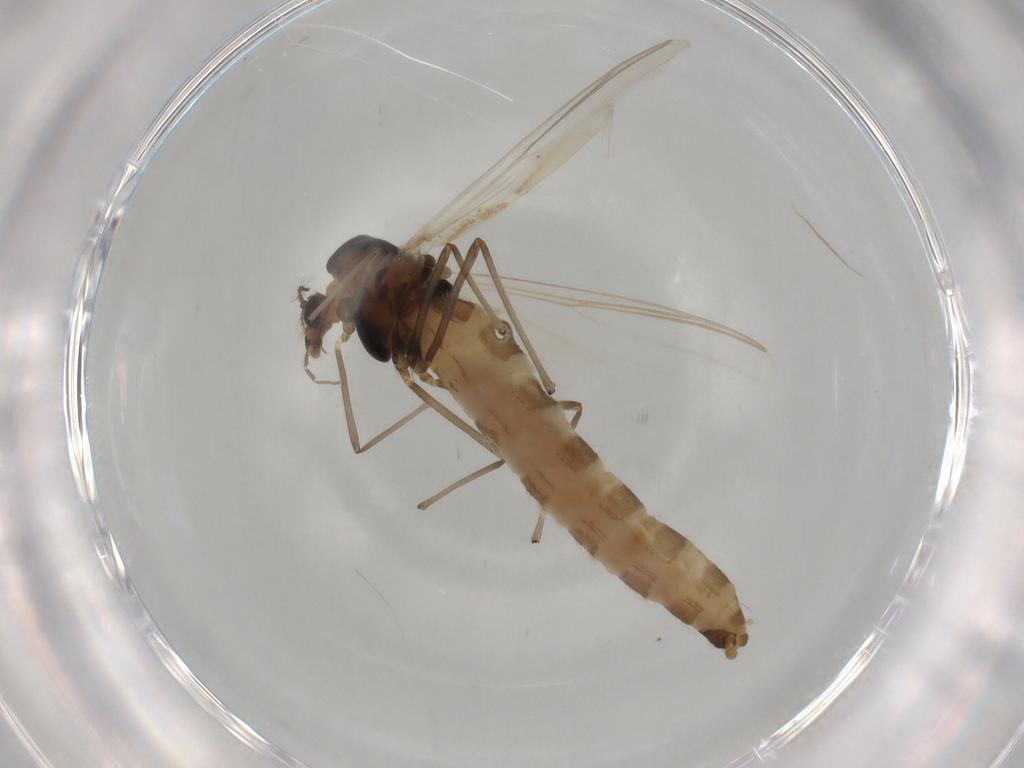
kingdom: Animalia
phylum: Arthropoda
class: Insecta
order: Diptera
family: Chironomidae
